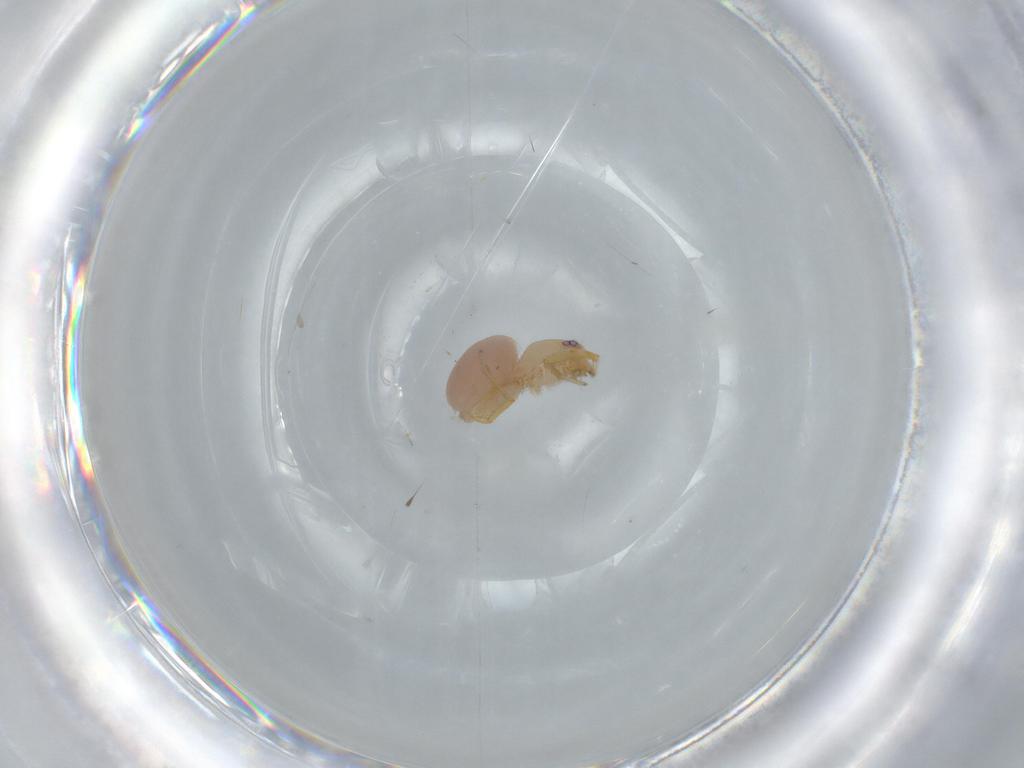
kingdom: Animalia
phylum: Arthropoda
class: Arachnida
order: Araneae
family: Oonopidae
